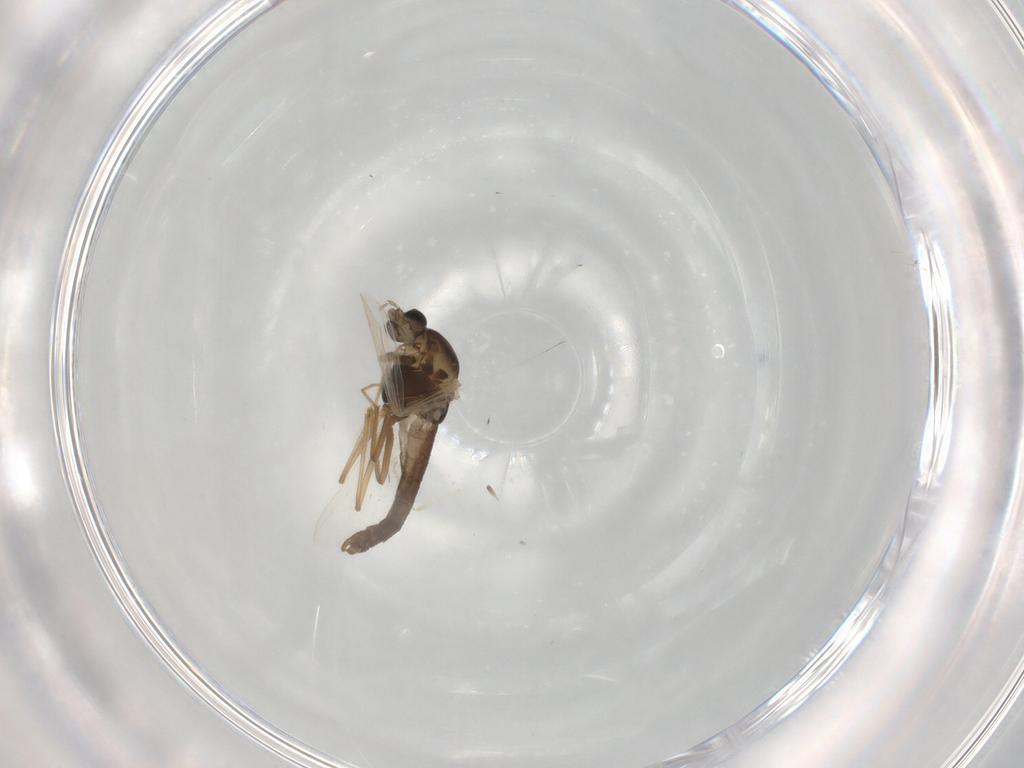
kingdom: Animalia
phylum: Arthropoda
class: Insecta
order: Diptera
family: Chironomidae
